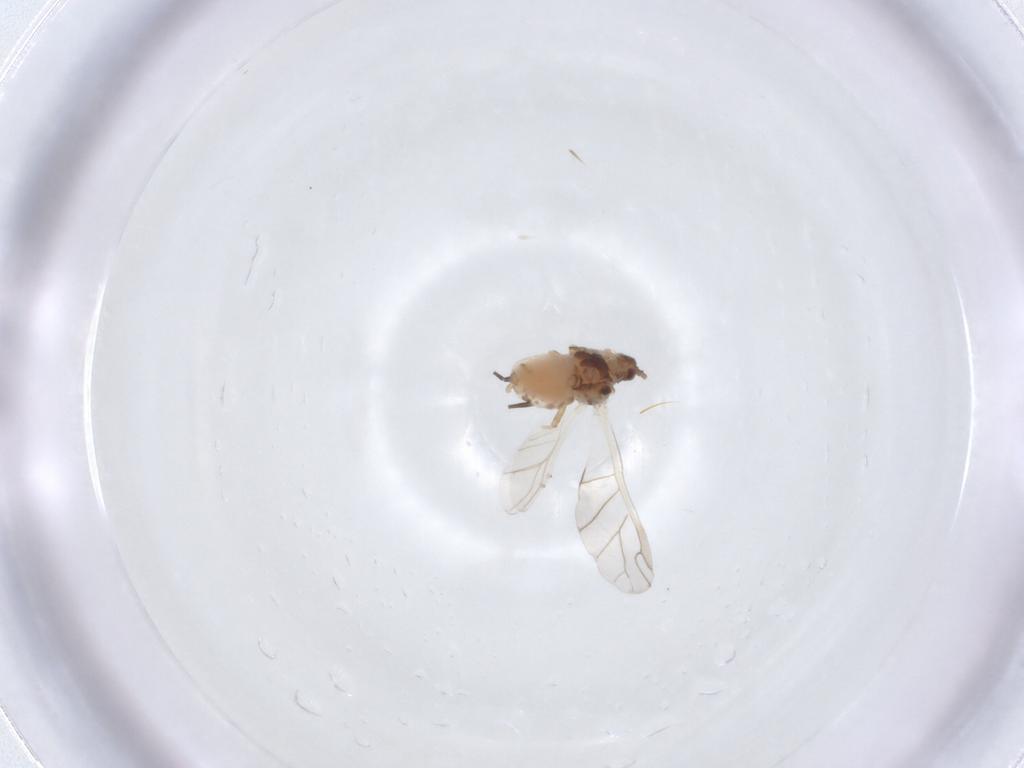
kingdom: Animalia
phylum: Arthropoda
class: Insecta
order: Hemiptera
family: Aphididae
